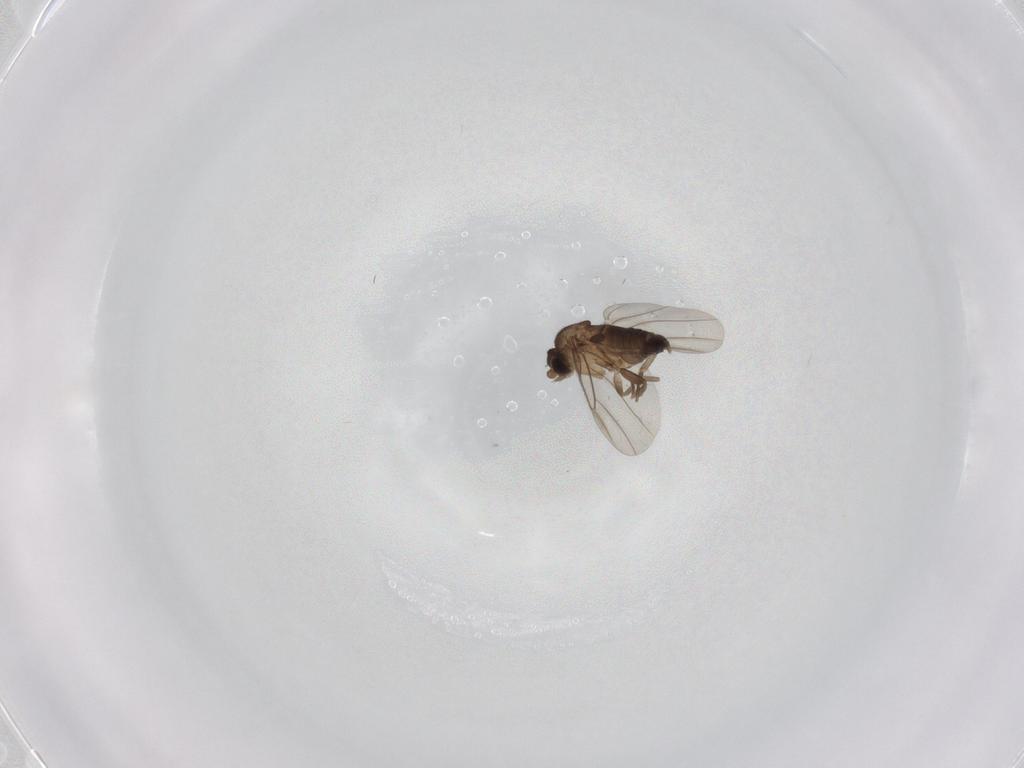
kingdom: Animalia
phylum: Arthropoda
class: Insecta
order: Diptera
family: Phoridae
